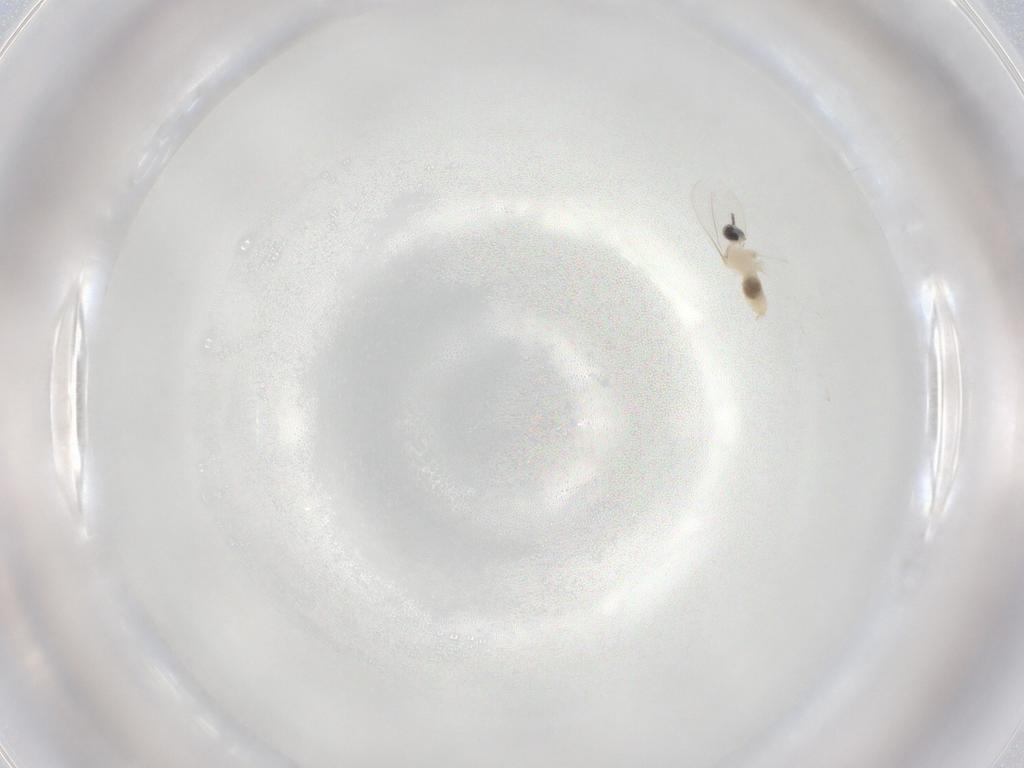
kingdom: Animalia
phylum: Arthropoda
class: Insecta
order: Diptera
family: Cecidomyiidae
